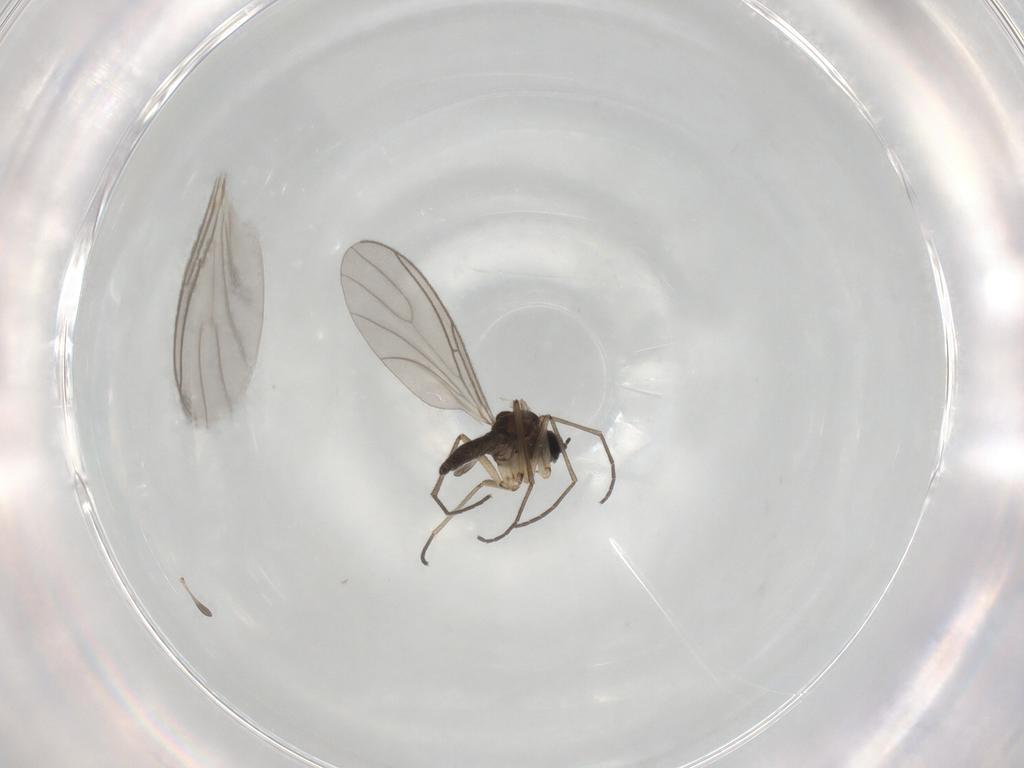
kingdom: Animalia
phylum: Arthropoda
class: Insecta
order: Diptera
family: Sciaridae
